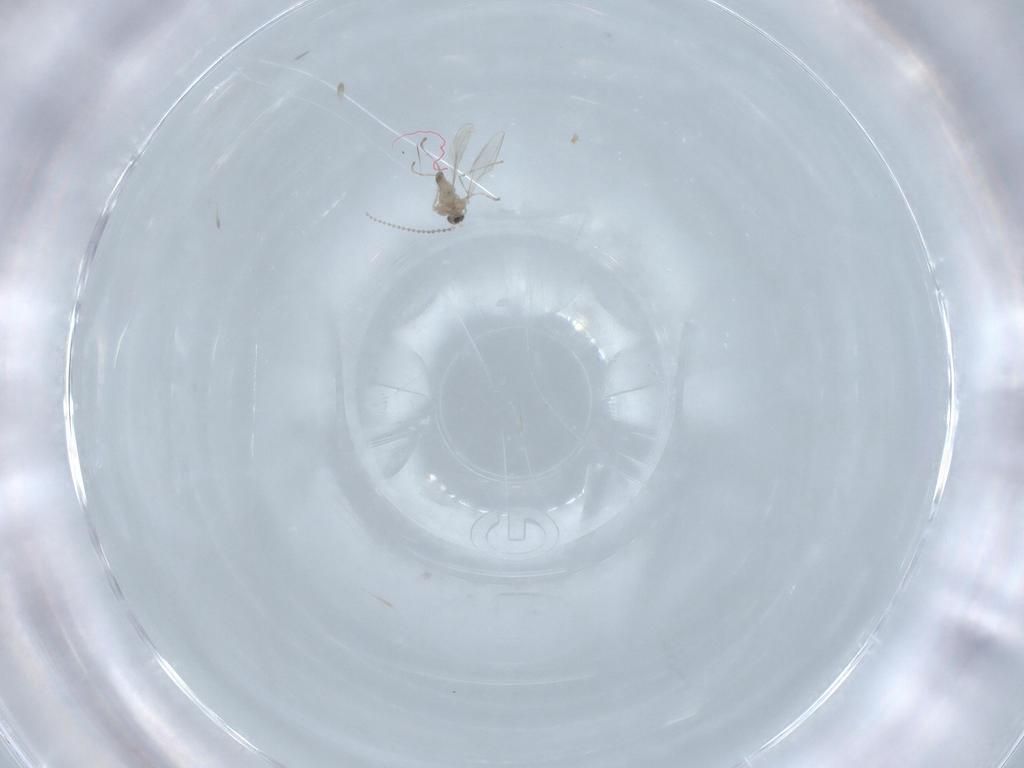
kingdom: Animalia
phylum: Arthropoda
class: Insecta
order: Diptera
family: Cecidomyiidae
